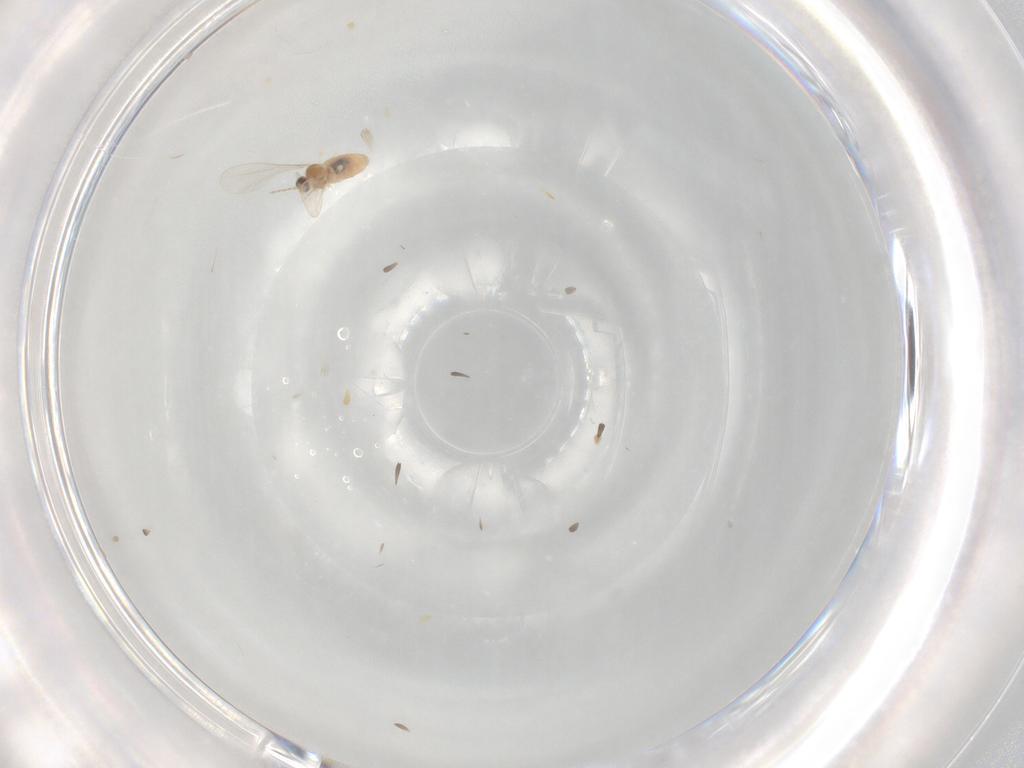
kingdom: Animalia
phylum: Arthropoda
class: Insecta
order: Diptera
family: Cecidomyiidae
